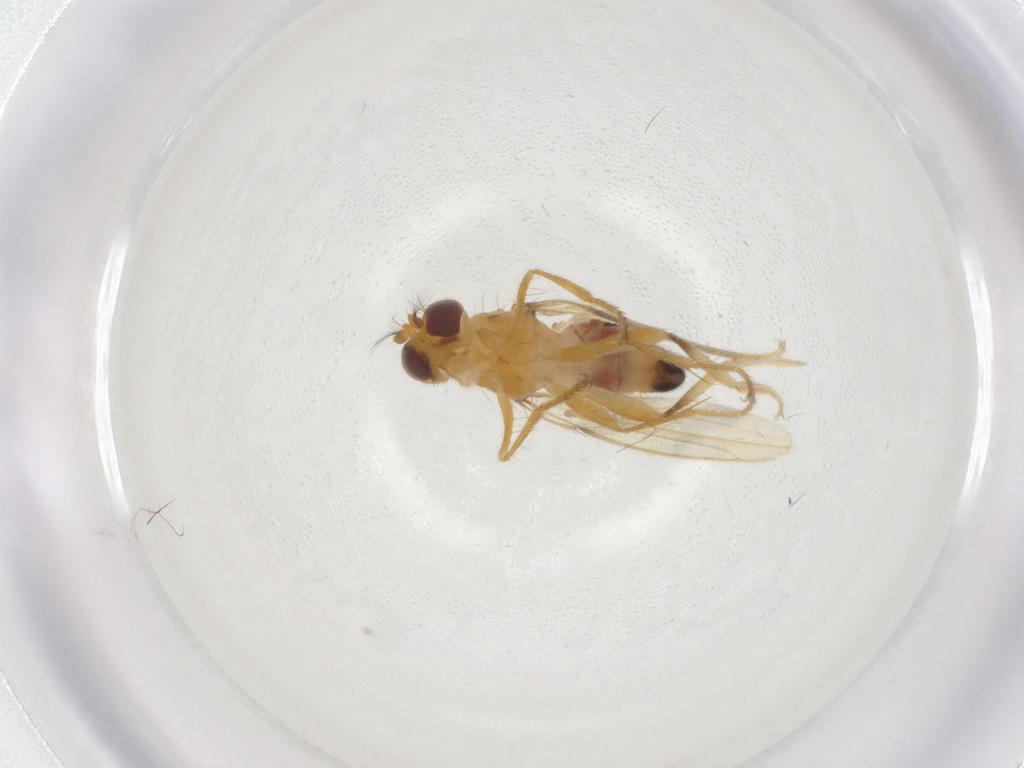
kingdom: Animalia
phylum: Arthropoda
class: Insecta
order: Diptera
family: Periscelididae
